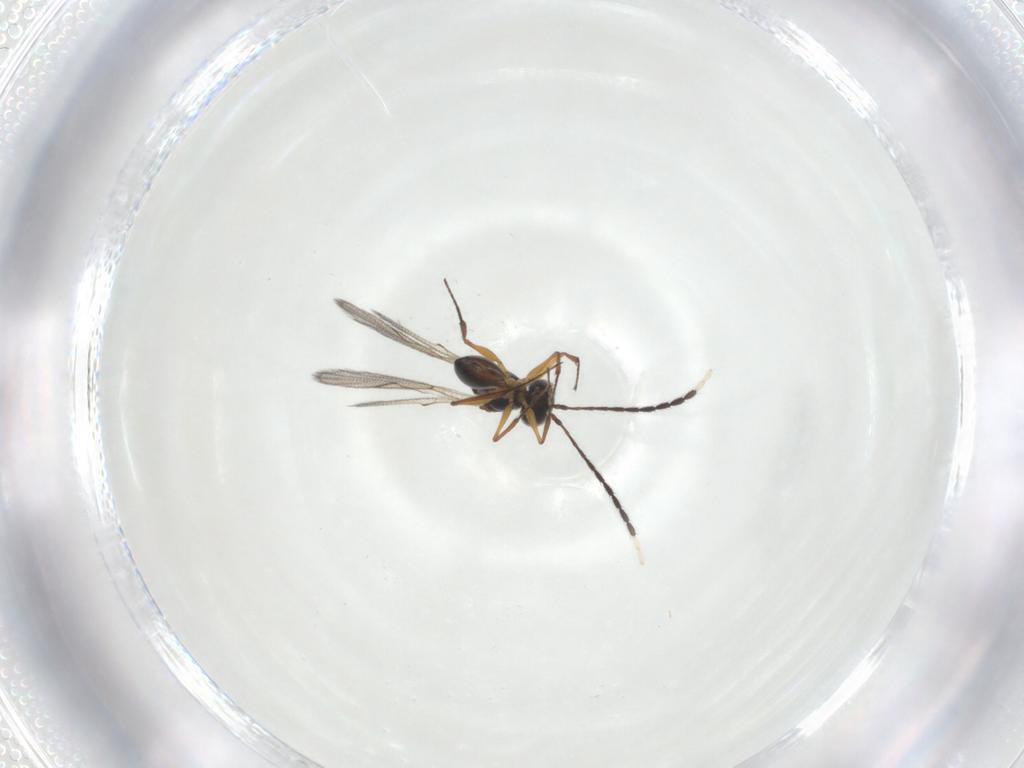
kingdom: Animalia
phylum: Arthropoda
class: Insecta
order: Hymenoptera
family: Figitidae
